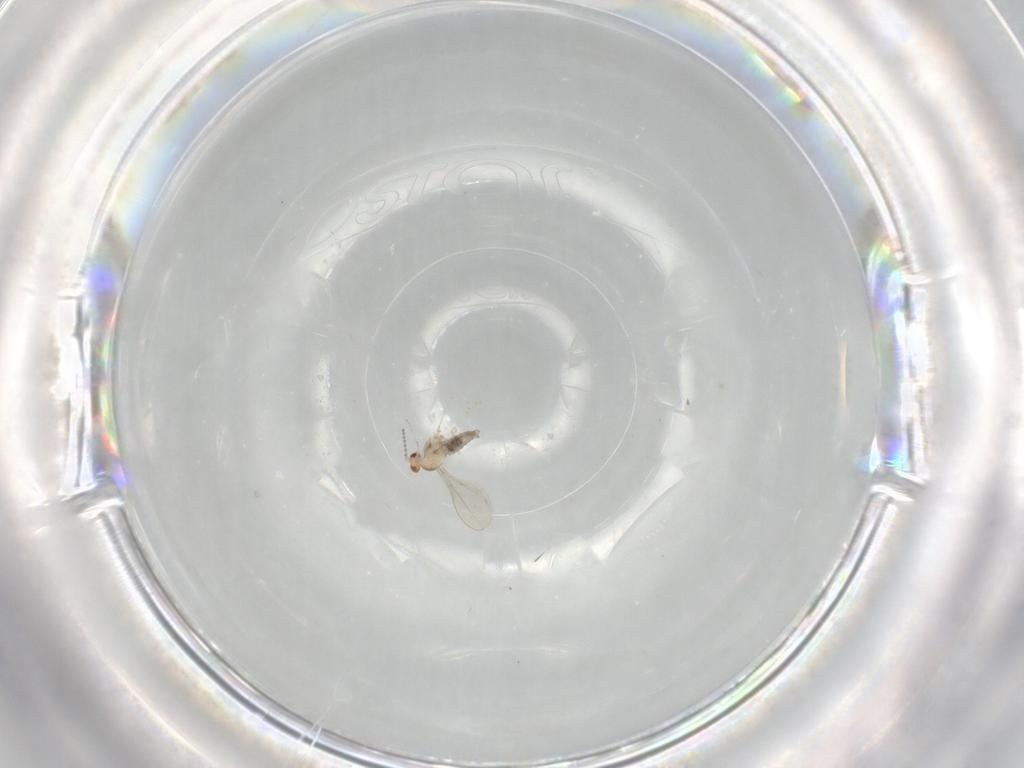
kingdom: Animalia
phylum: Arthropoda
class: Insecta
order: Diptera
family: Cecidomyiidae
